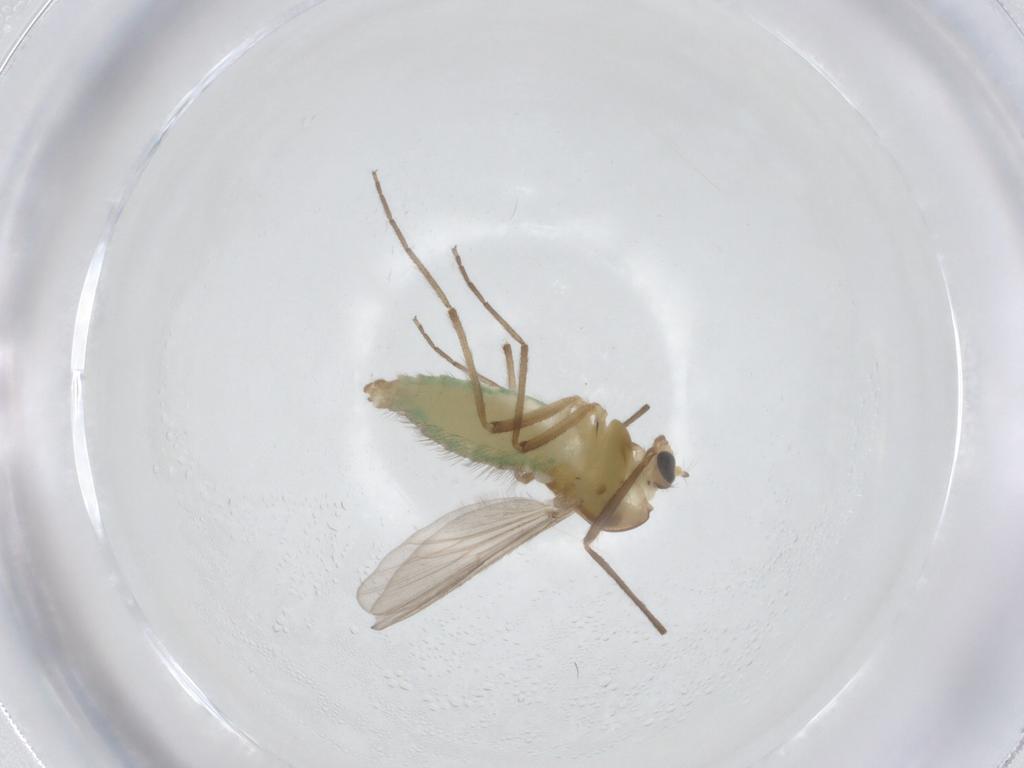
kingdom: Animalia
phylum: Arthropoda
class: Insecta
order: Diptera
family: Chironomidae
